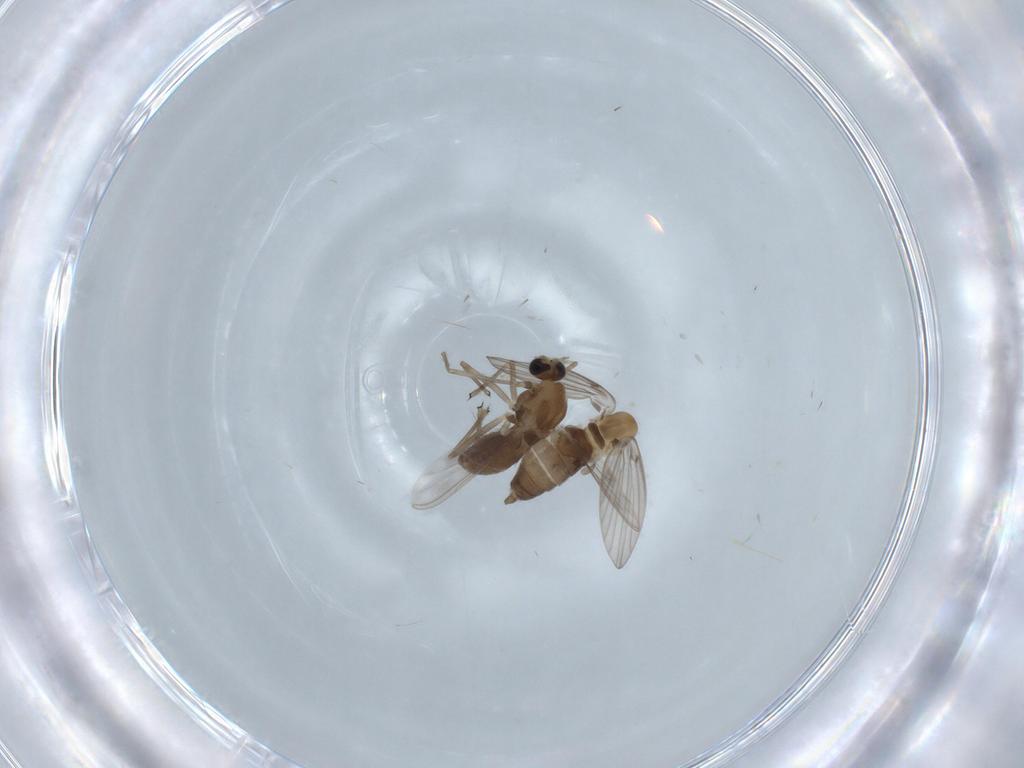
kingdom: Animalia
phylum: Arthropoda
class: Insecta
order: Diptera
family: Chironomidae
